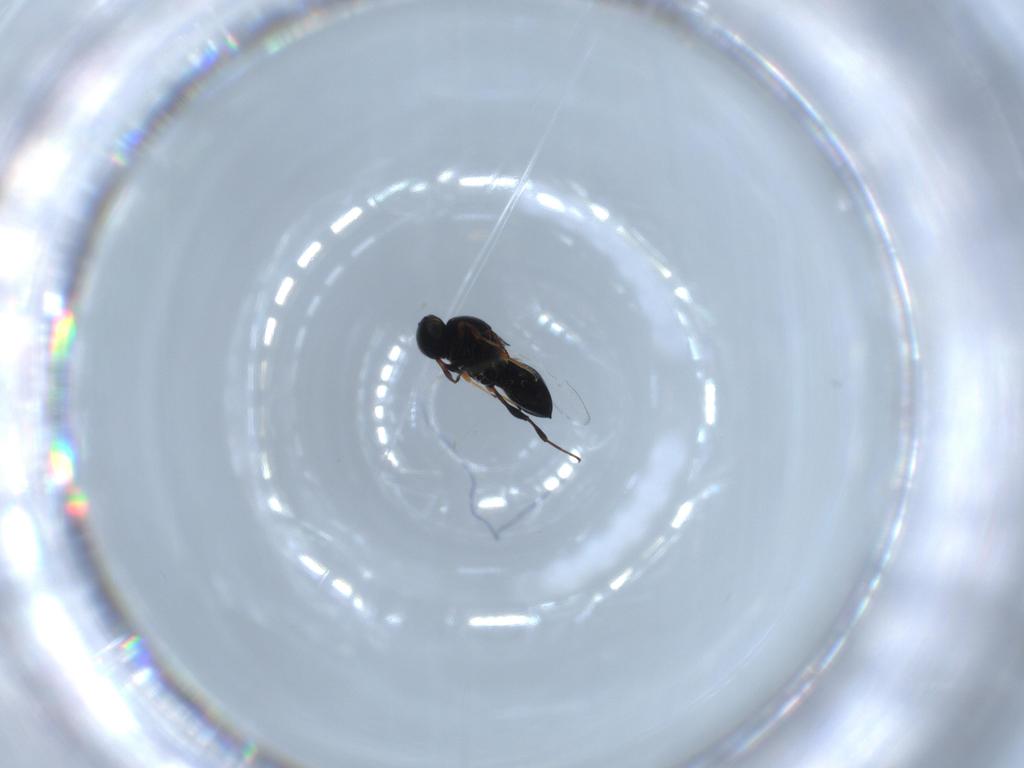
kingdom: Animalia
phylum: Arthropoda
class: Insecta
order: Hymenoptera
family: Platygastridae
